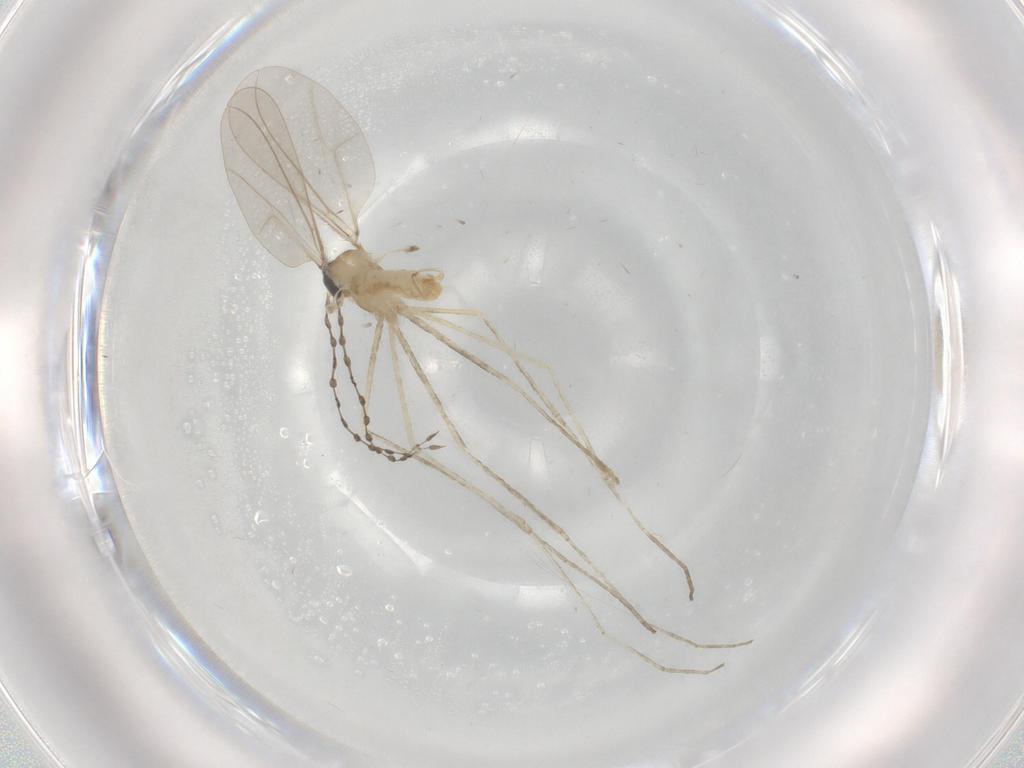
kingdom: Animalia
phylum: Arthropoda
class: Insecta
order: Diptera
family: Cecidomyiidae
